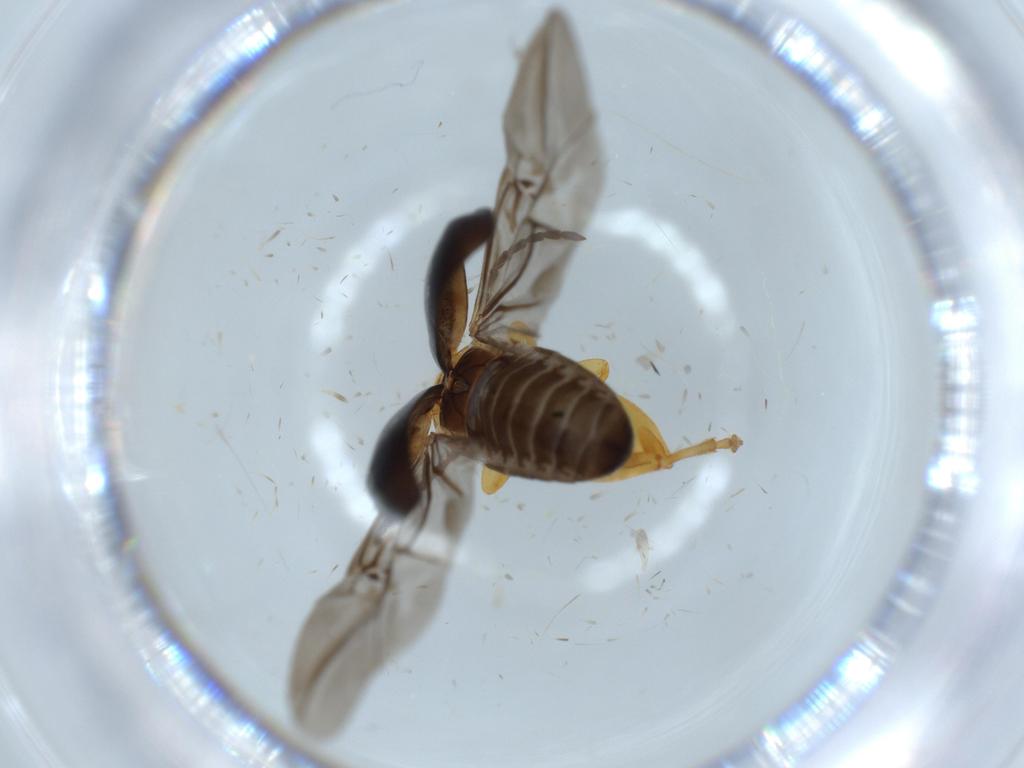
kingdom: Animalia
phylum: Arthropoda
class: Insecta
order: Coleoptera
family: Chrysomelidae
